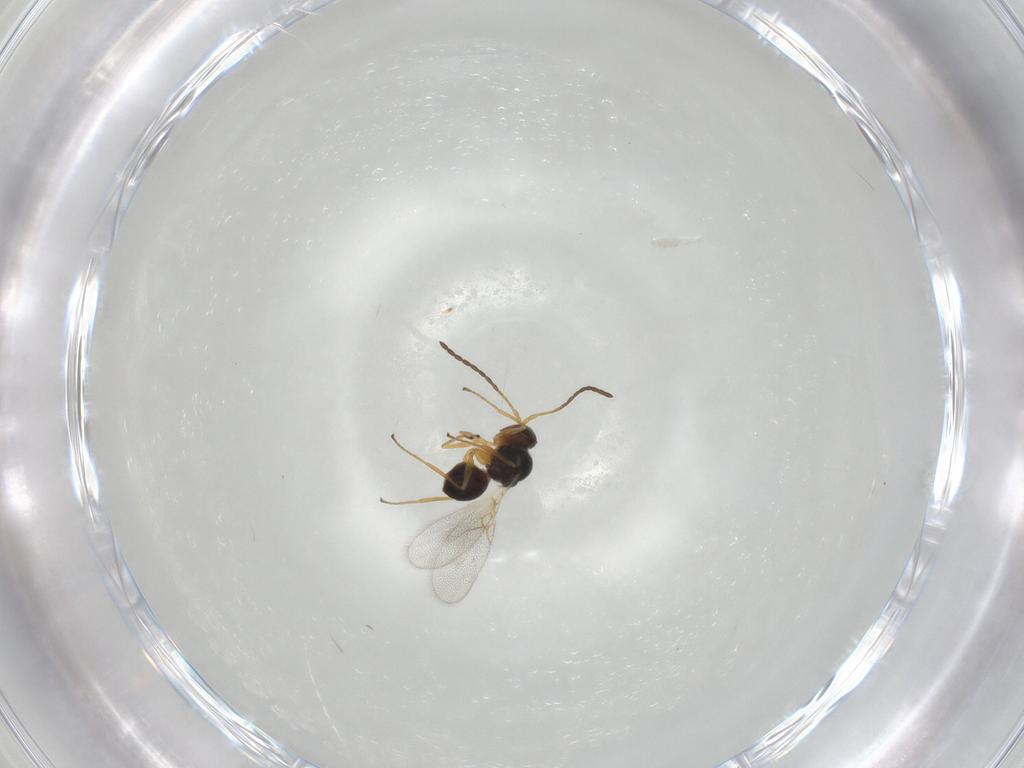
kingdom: Animalia
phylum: Arthropoda
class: Insecta
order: Hymenoptera
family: Figitidae
